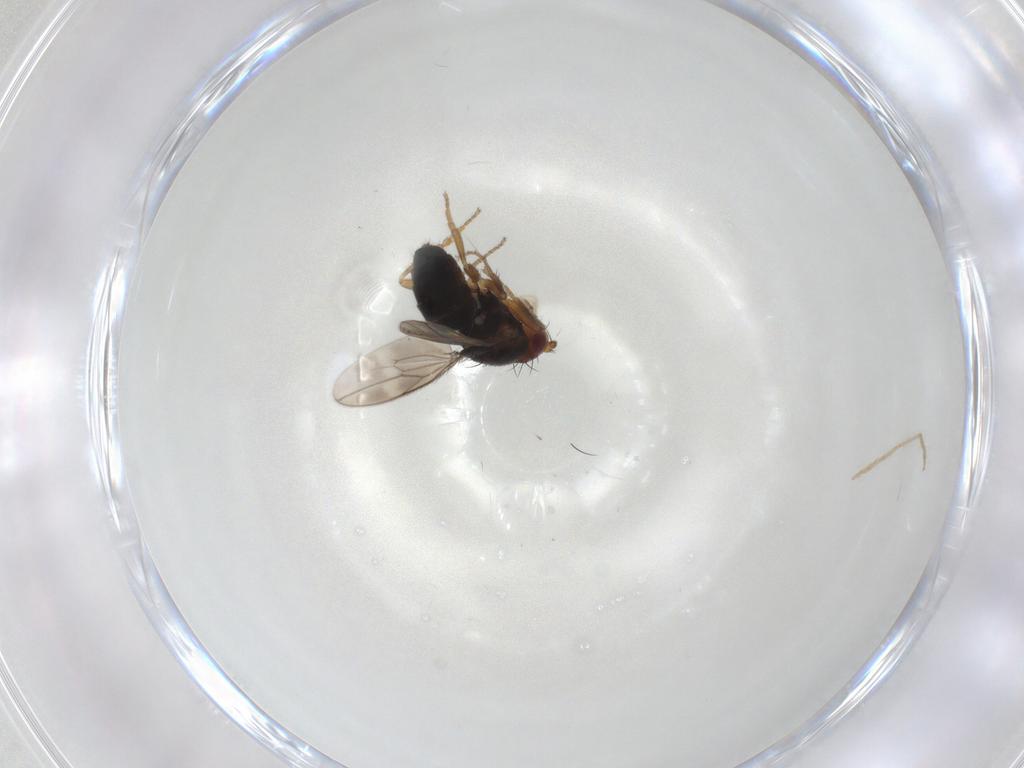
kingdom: Animalia
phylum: Arthropoda
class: Insecta
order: Diptera
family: Sphaeroceridae
